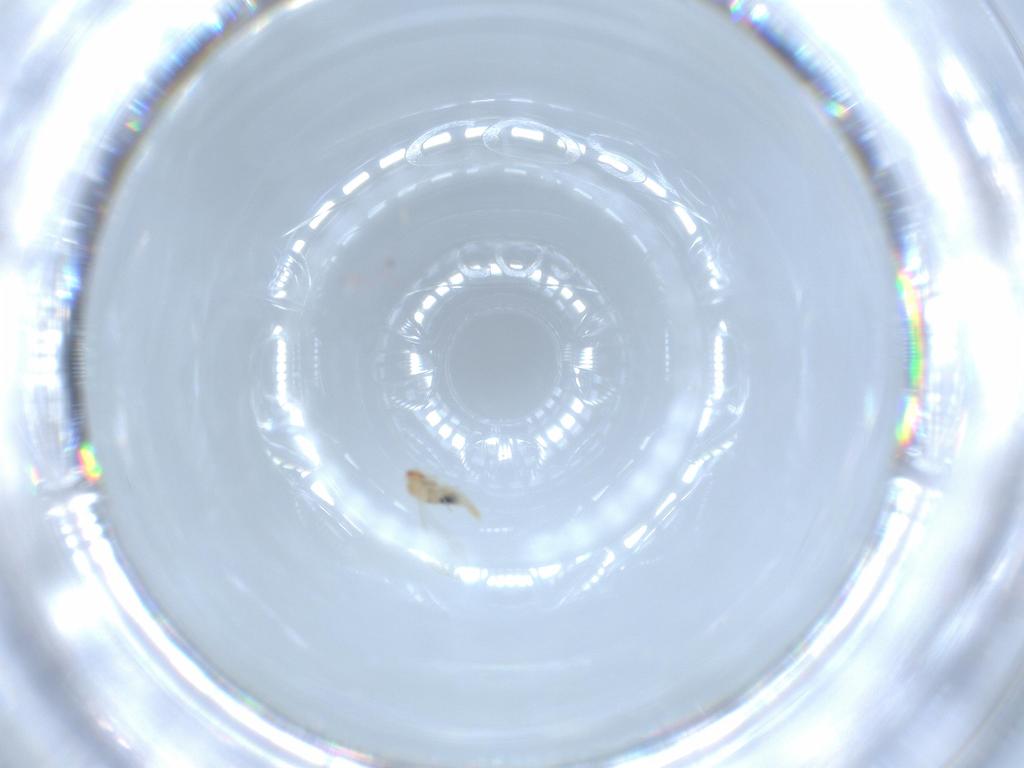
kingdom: Animalia
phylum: Arthropoda
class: Insecta
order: Diptera
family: Cecidomyiidae
